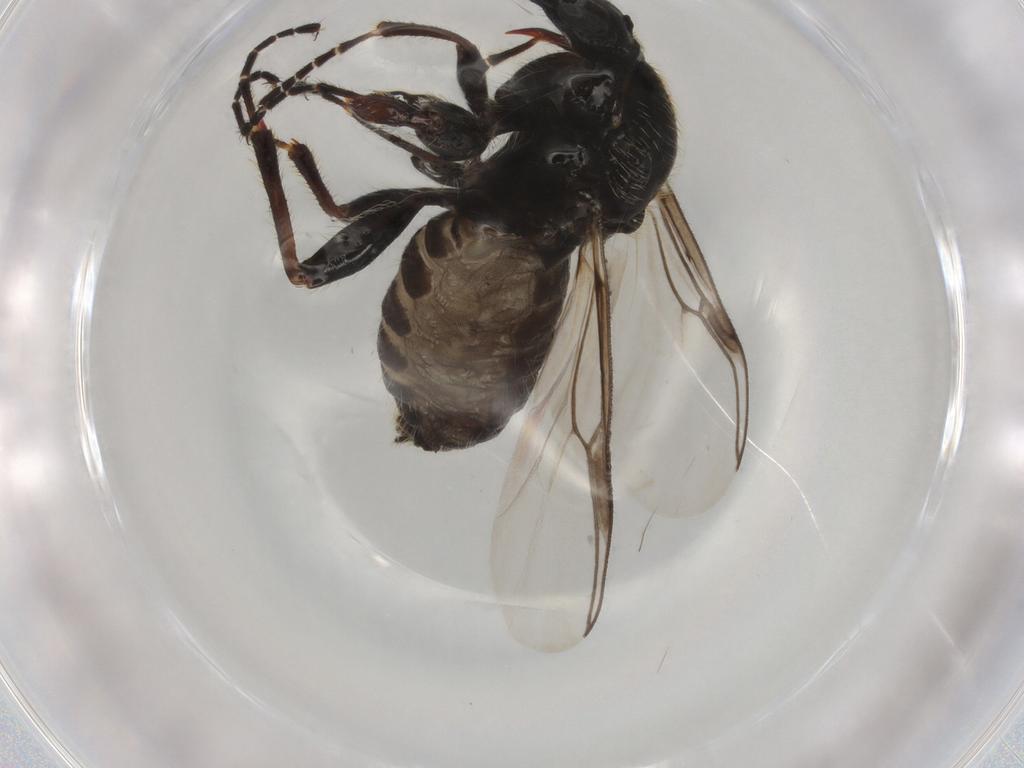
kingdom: Animalia
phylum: Arthropoda
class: Insecta
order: Diptera
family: Bibionidae
